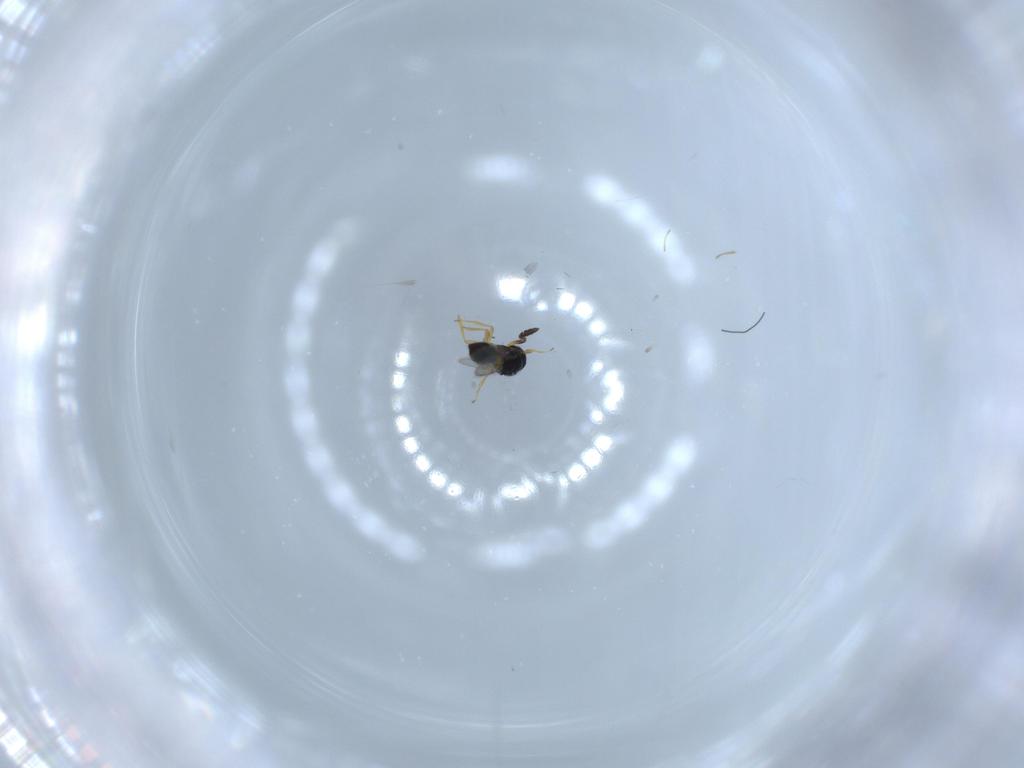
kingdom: Animalia
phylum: Arthropoda
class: Insecta
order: Hymenoptera
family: Scelionidae
